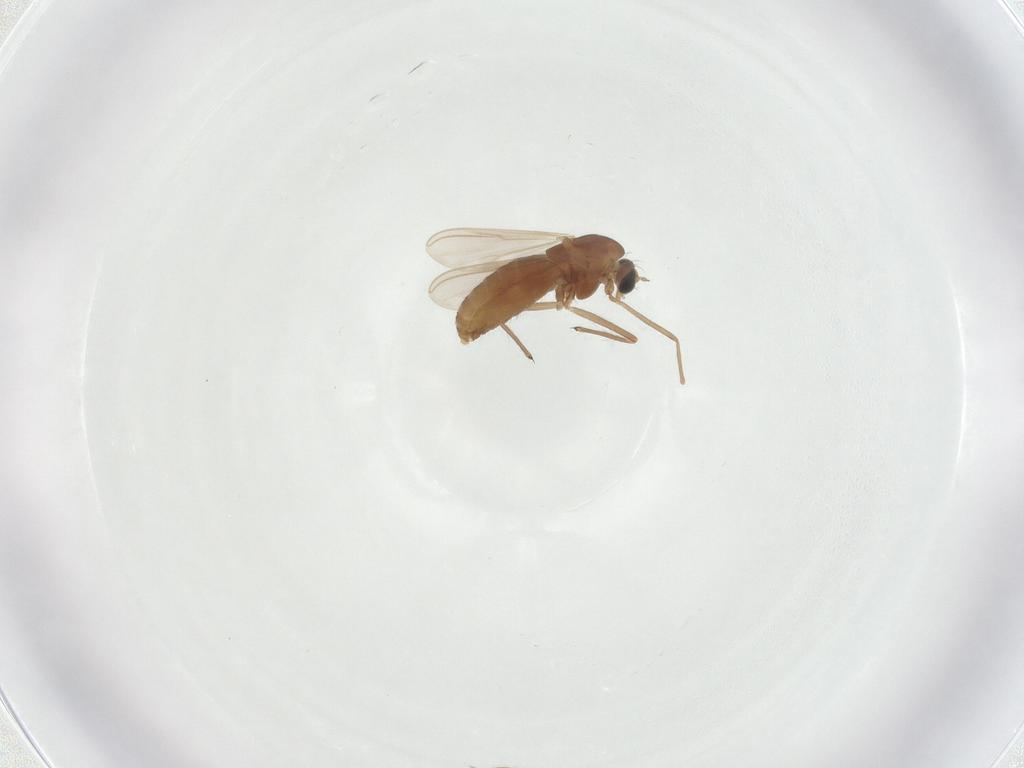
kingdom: Animalia
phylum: Arthropoda
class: Insecta
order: Diptera
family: Chironomidae
